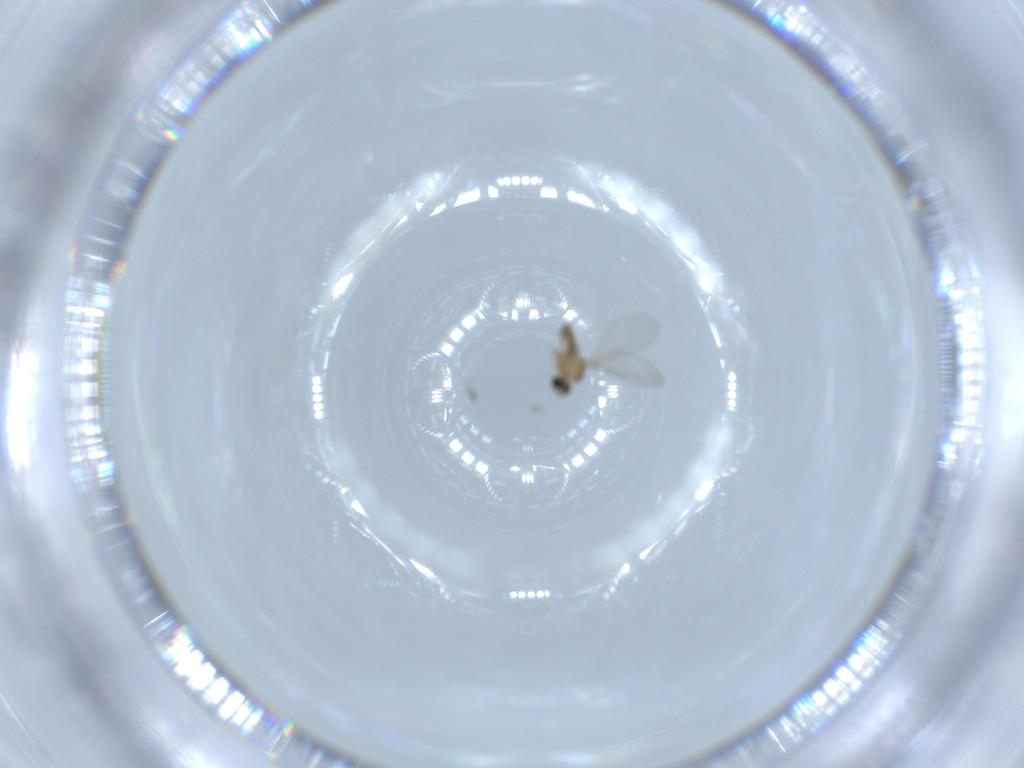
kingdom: Animalia
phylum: Arthropoda
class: Insecta
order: Diptera
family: Cecidomyiidae
